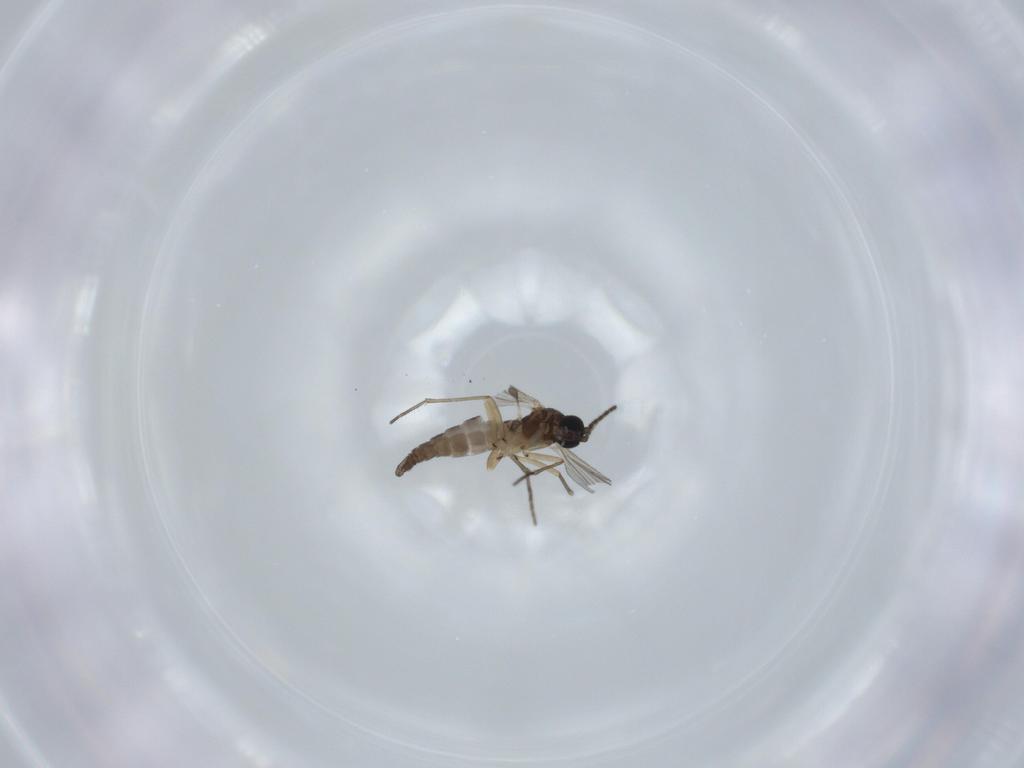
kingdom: Animalia
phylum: Arthropoda
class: Insecta
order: Diptera
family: Sciaridae
